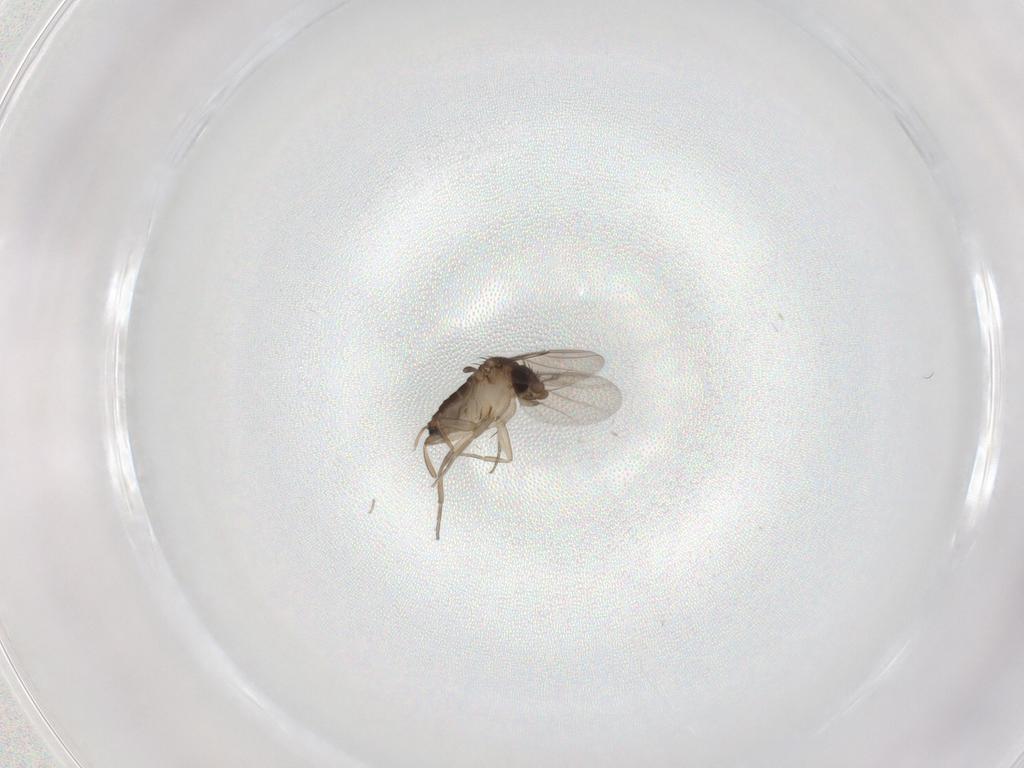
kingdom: Animalia
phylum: Arthropoda
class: Insecta
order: Diptera
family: Phoridae
